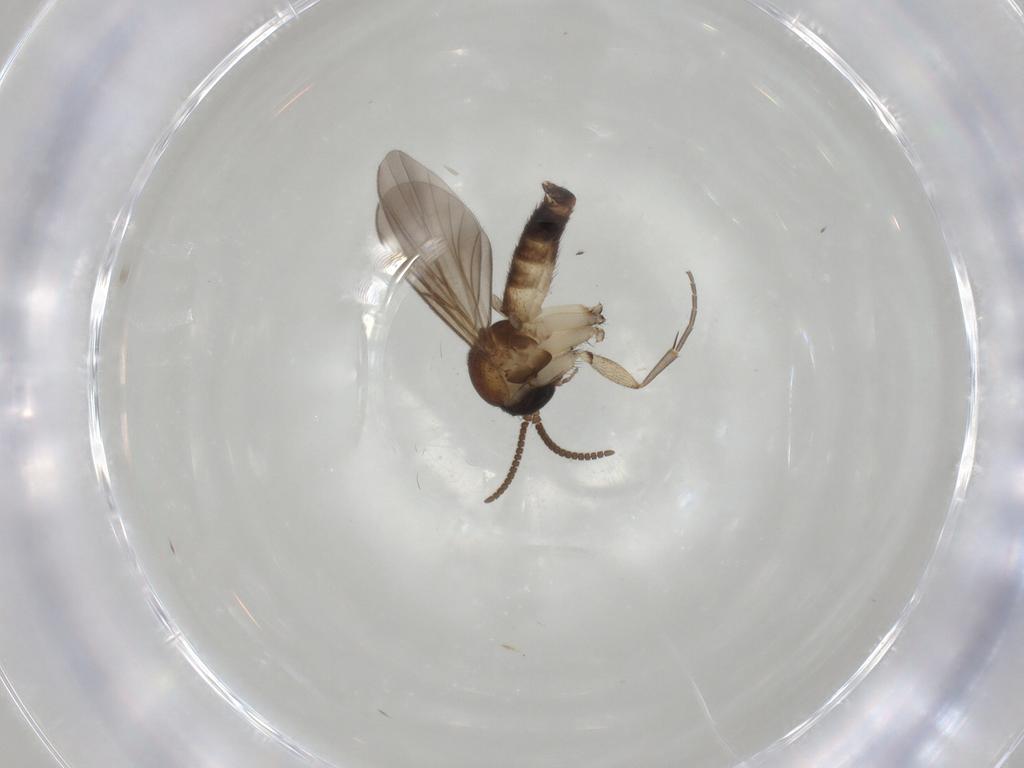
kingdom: Animalia
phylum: Arthropoda
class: Insecta
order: Diptera
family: Mycetophilidae
